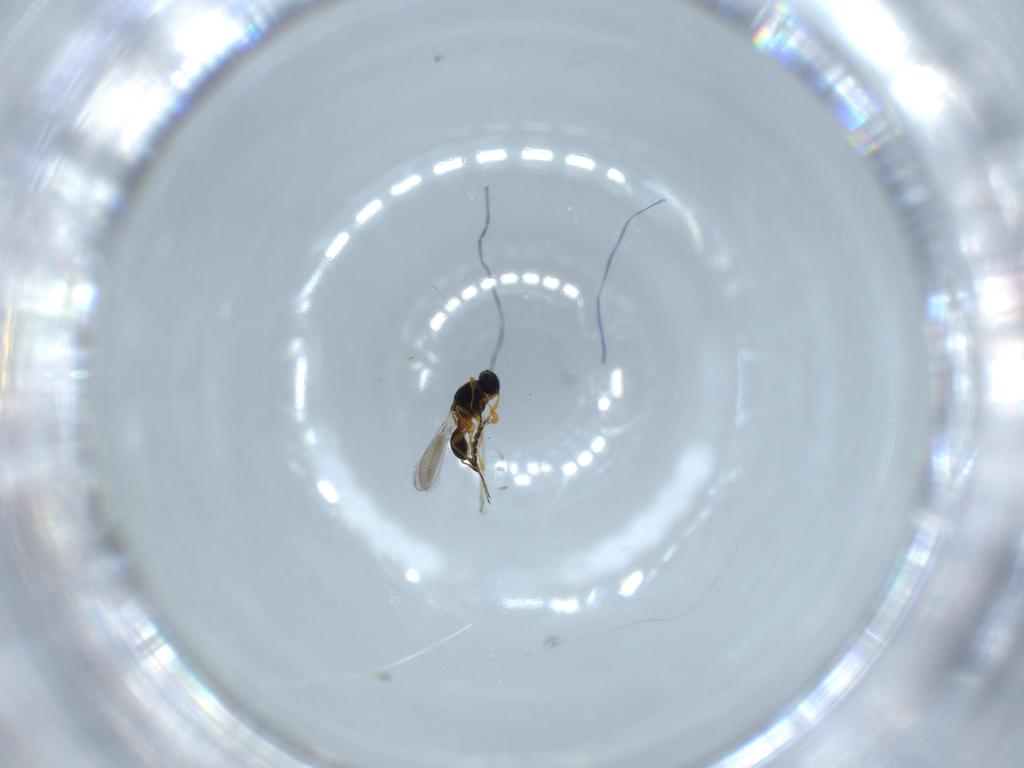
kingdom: Animalia
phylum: Arthropoda
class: Insecta
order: Hymenoptera
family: Platygastridae
